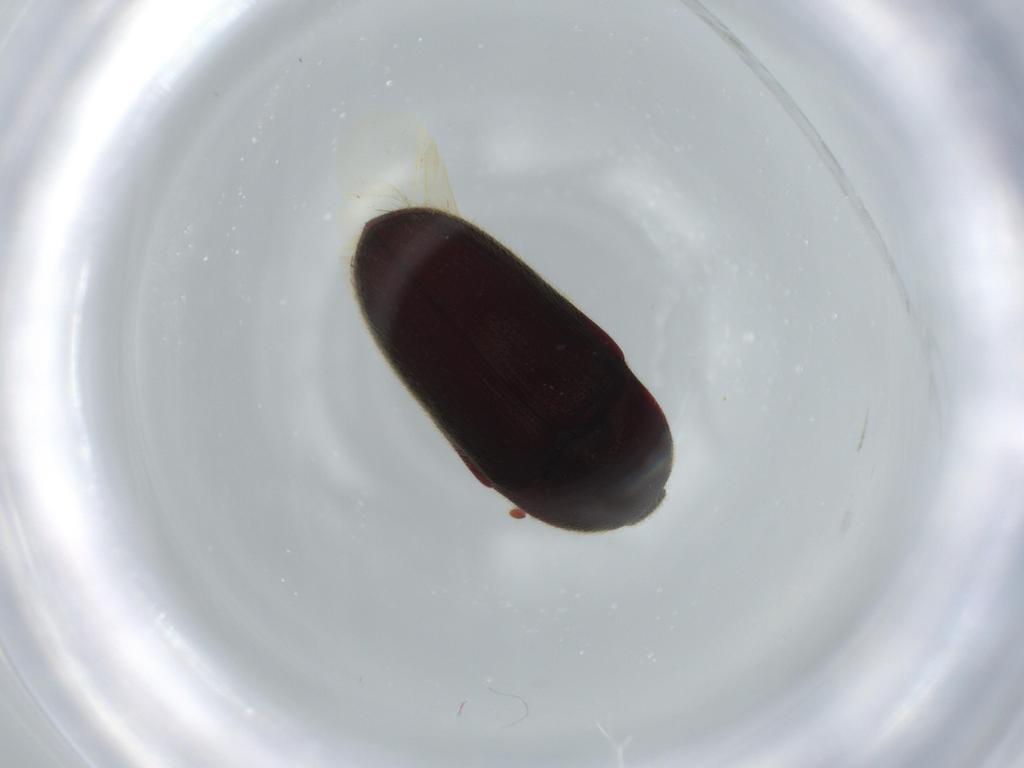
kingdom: Animalia
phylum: Arthropoda
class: Insecta
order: Coleoptera
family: Throscidae
